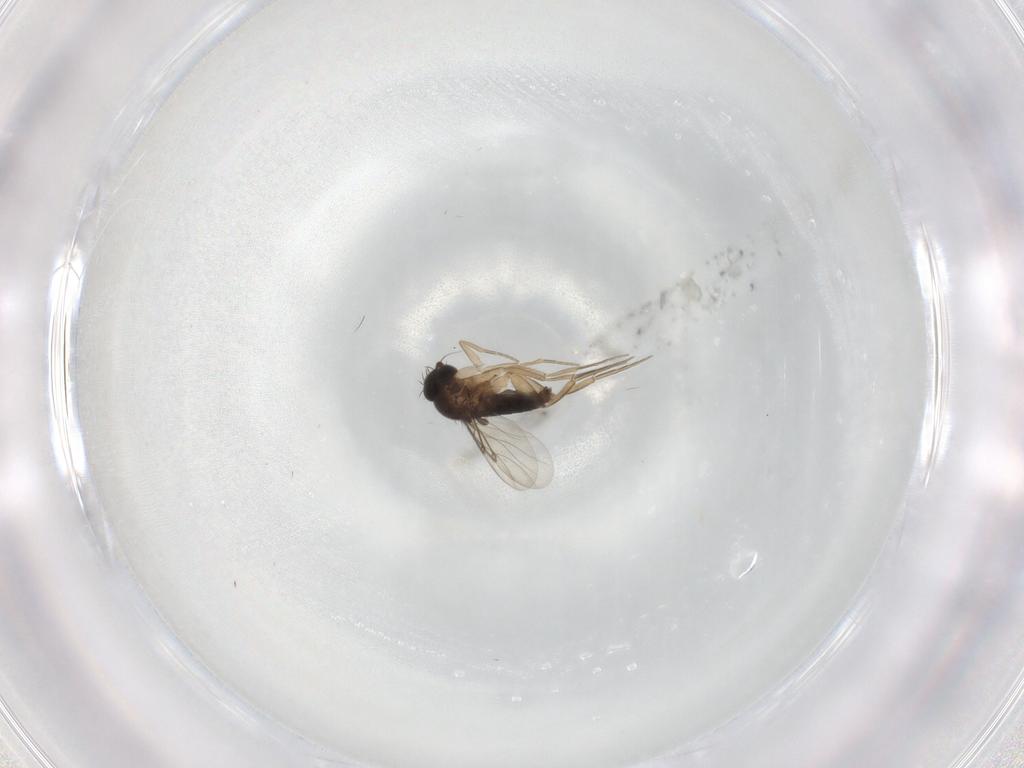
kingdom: Animalia
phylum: Arthropoda
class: Insecta
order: Diptera
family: Phoridae
